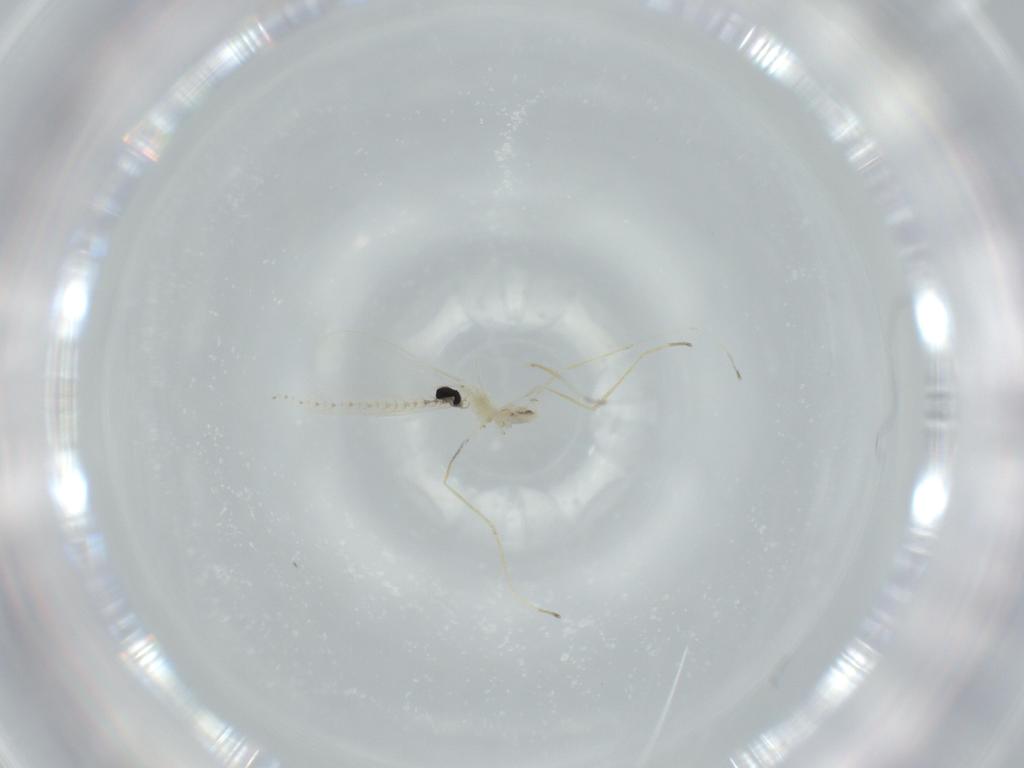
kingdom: Animalia
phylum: Arthropoda
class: Insecta
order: Diptera
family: Cecidomyiidae
